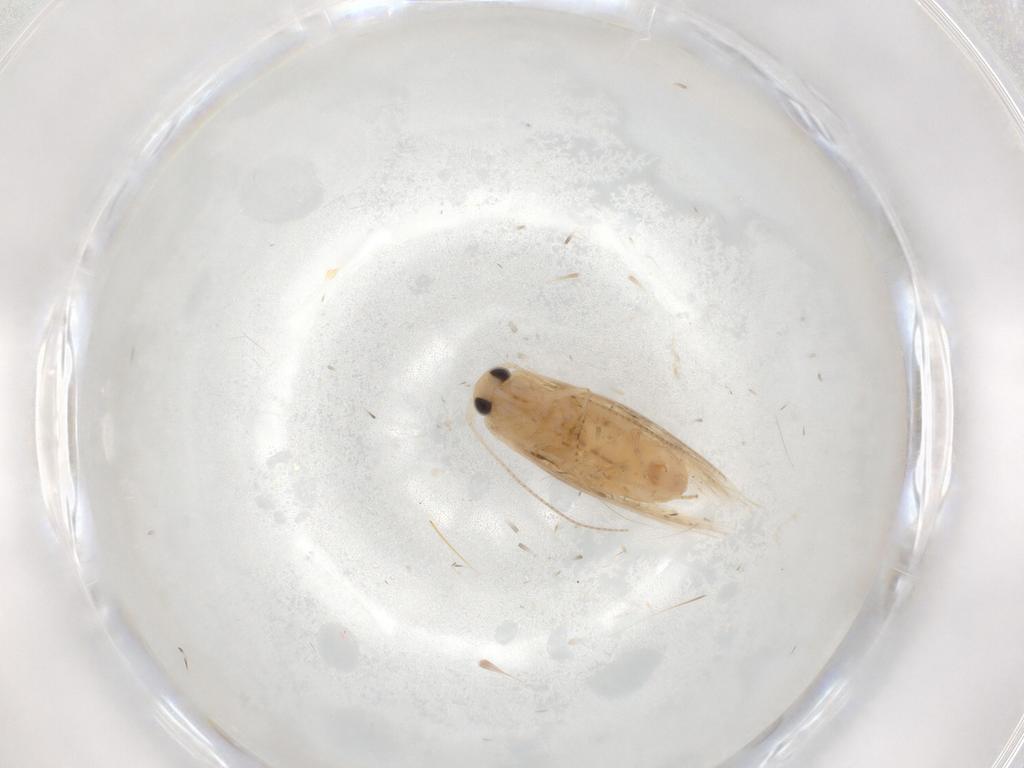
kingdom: Animalia
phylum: Arthropoda
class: Insecta
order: Lepidoptera
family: Bucculatricidae
